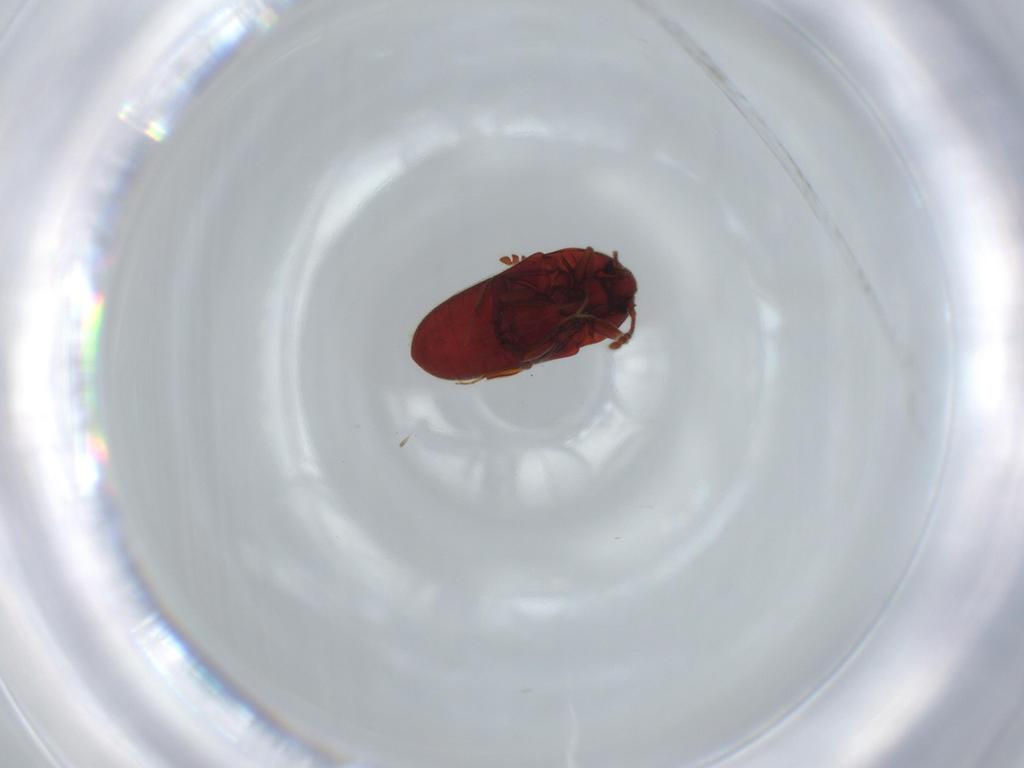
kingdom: Animalia
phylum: Arthropoda
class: Insecta
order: Coleoptera
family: Throscidae
